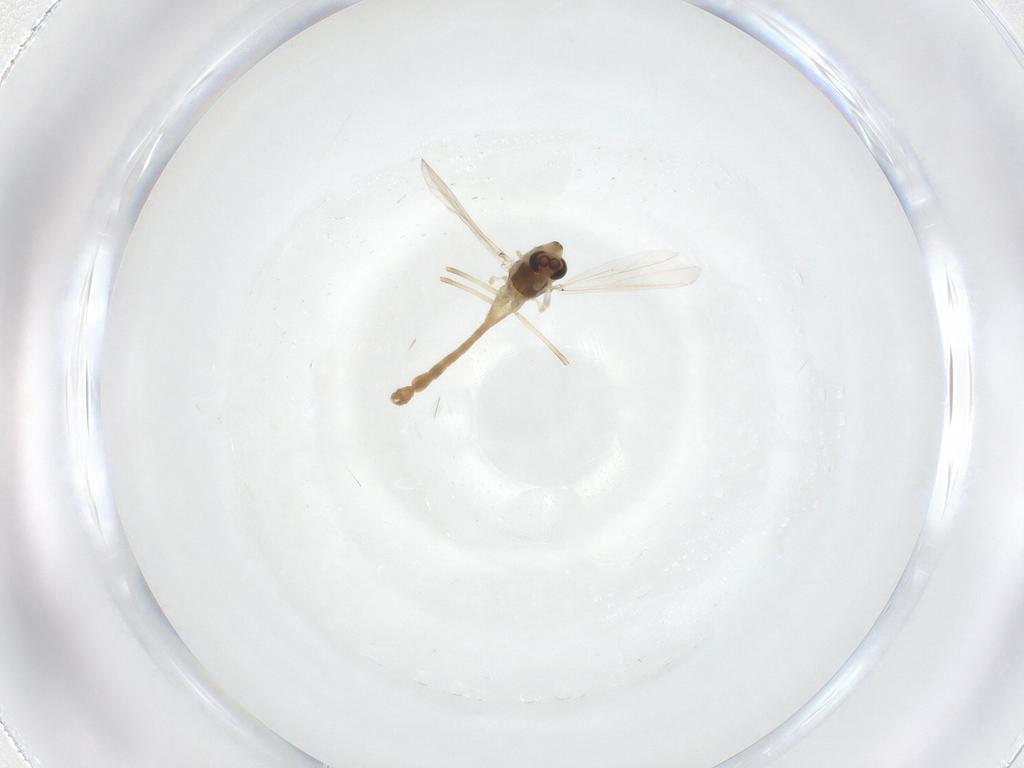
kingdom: Animalia
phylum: Arthropoda
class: Insecta
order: Diptera
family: Chironomidae
